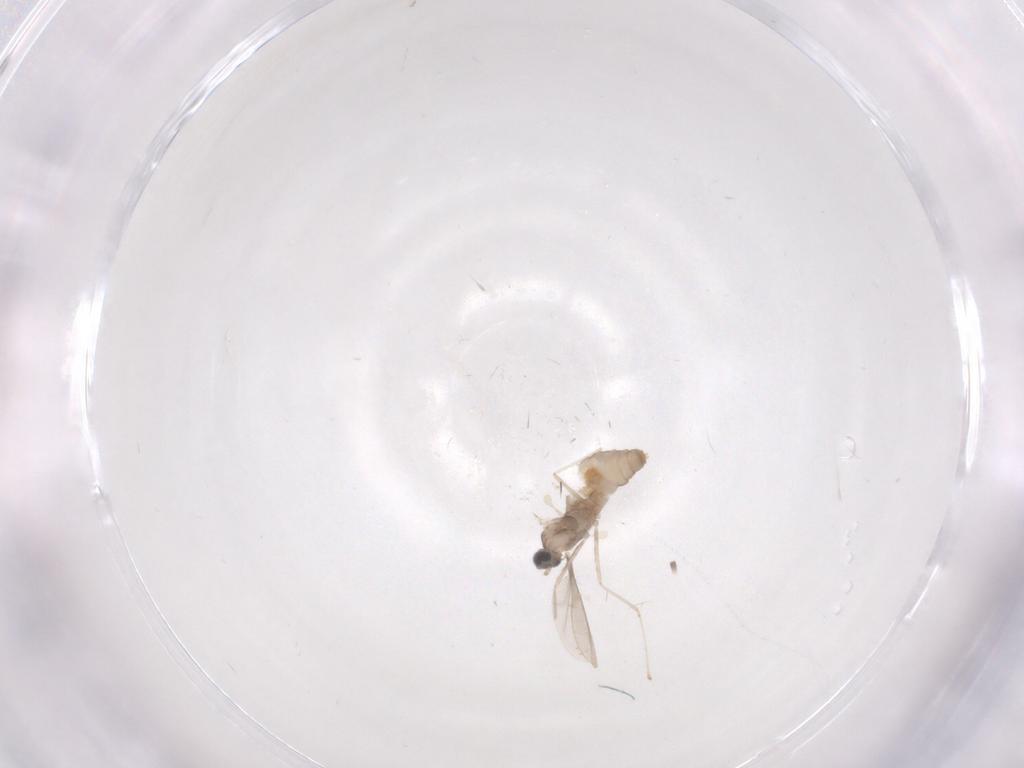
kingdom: Animalia
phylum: Arthropoda
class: Insecta
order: Diptera
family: Cecidomyiidae
